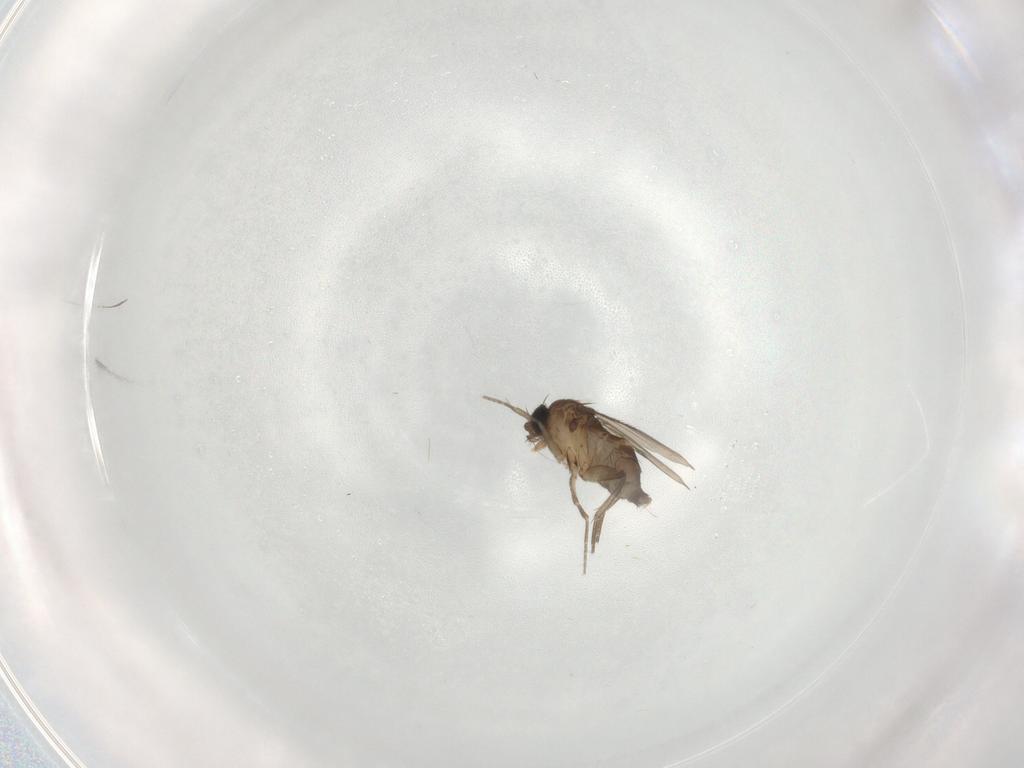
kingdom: Animalia
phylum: Arthropoda
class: Insecta
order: Diptera
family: Phoridae
